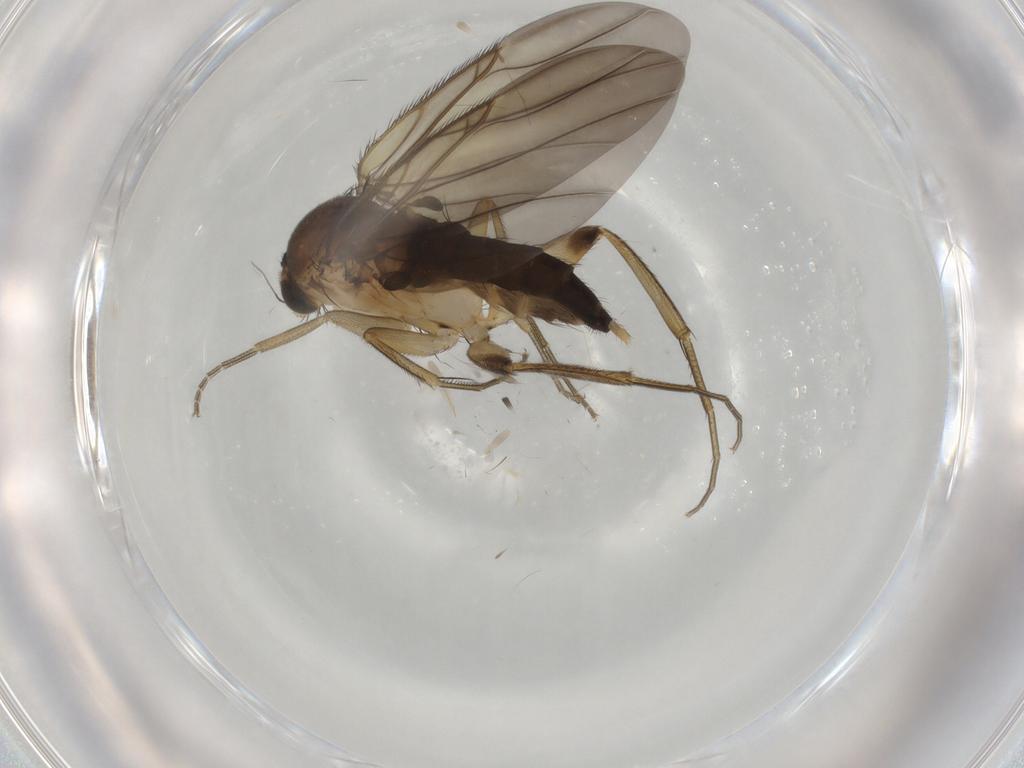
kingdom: Animalia
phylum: Arthropoda
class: Insecta
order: Diptera
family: Phoridae
